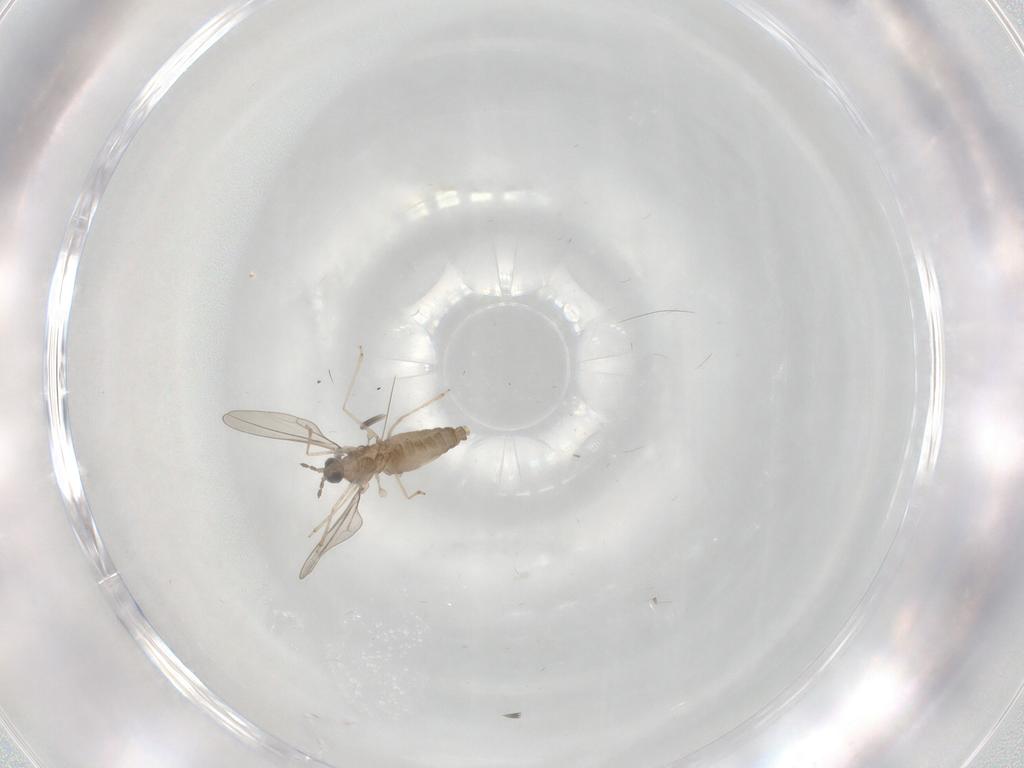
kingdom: Animalia
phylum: Arthropoda
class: Insecta
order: Diptera
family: Cecidomyiidae
